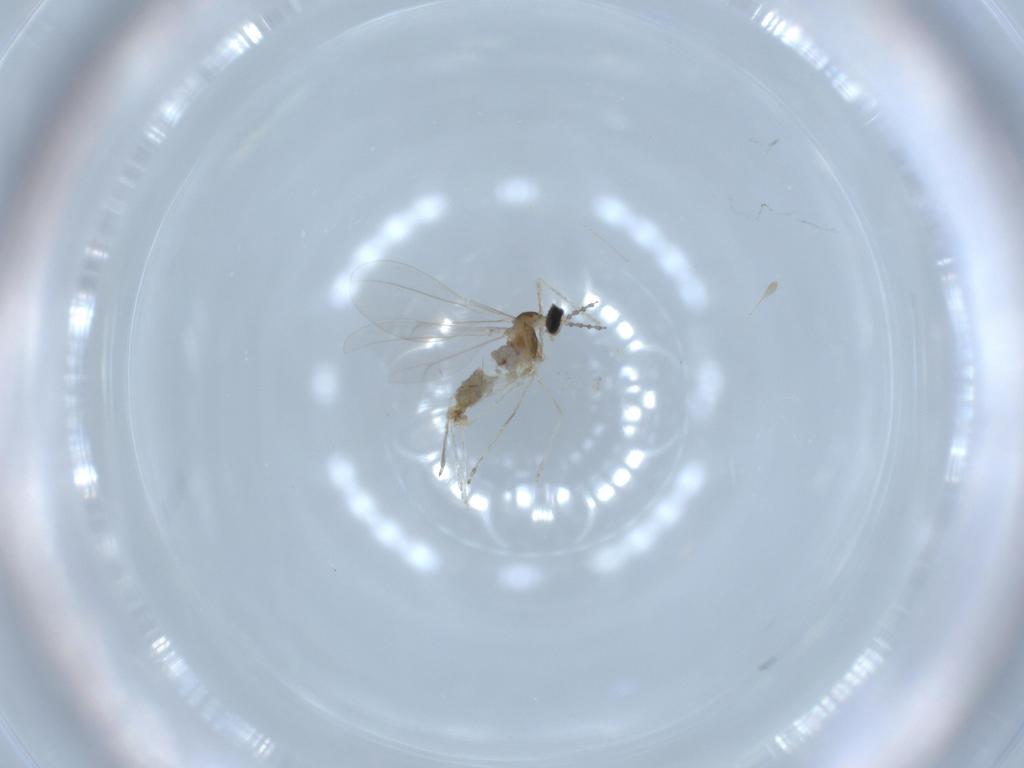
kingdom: Animalia
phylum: Arthropoda
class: Insecta
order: Diptera
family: Cecidomyiidae
